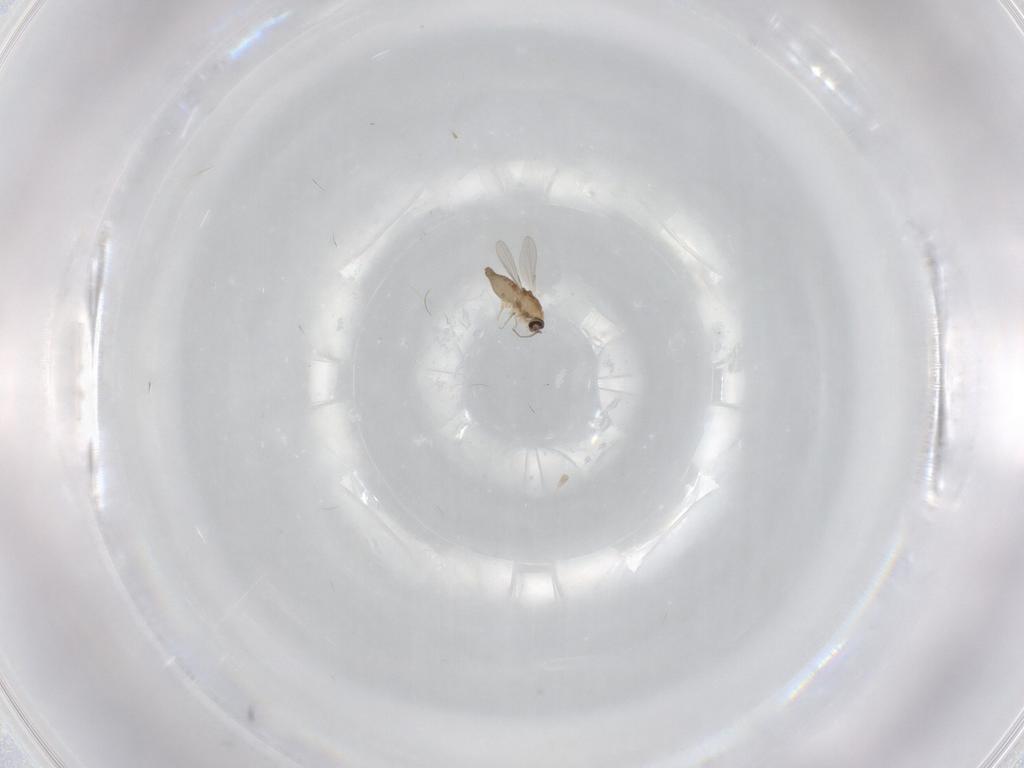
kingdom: Animalia
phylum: Arthropoda
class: Insecta
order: Diptera
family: Ceratopogonidae
